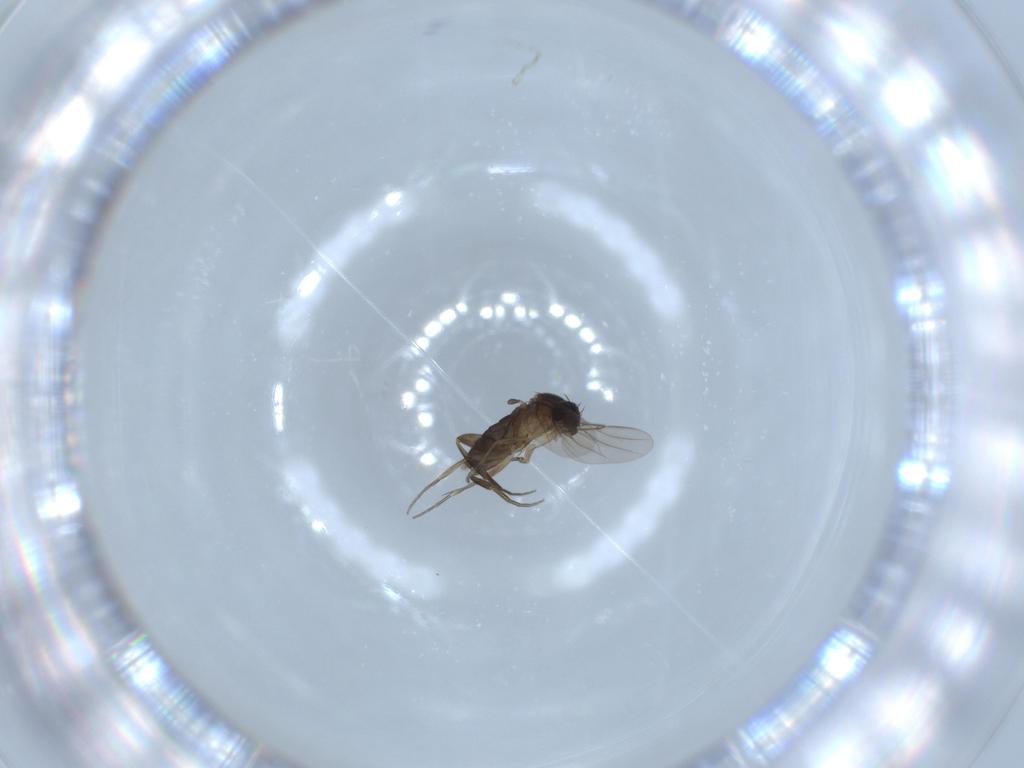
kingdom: Animalia
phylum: Arthropoda
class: Insecta
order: Diptera
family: Phoridae
